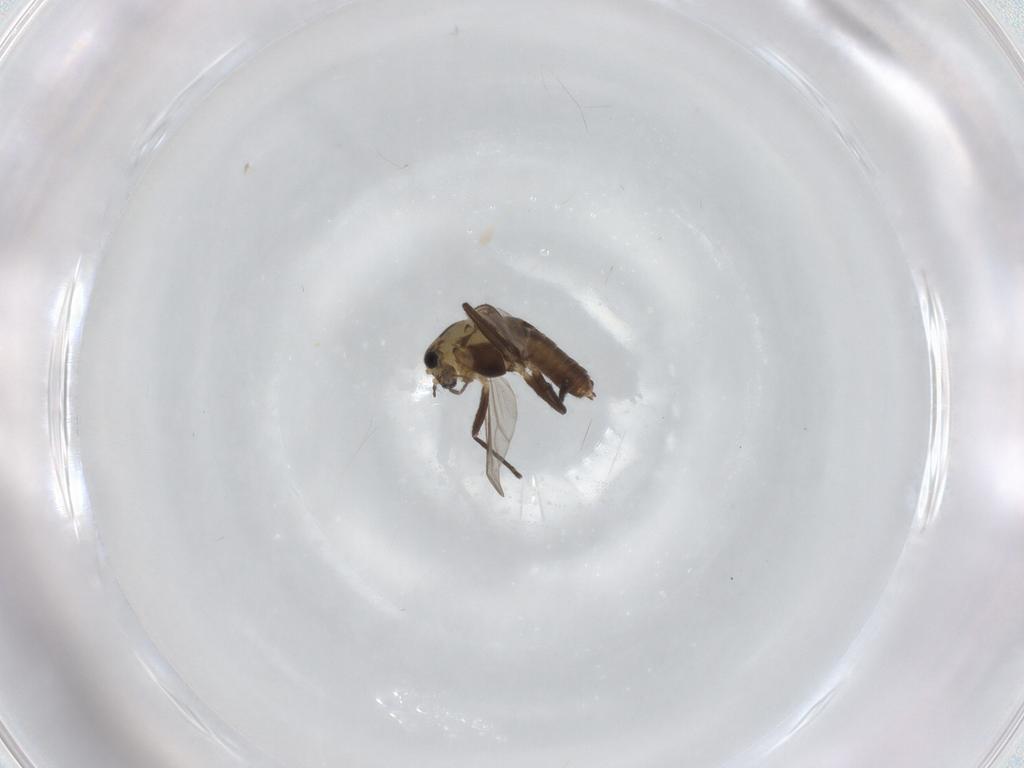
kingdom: Animalia
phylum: Arthropoda
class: Insecta
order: Diptera
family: Chironomidae
